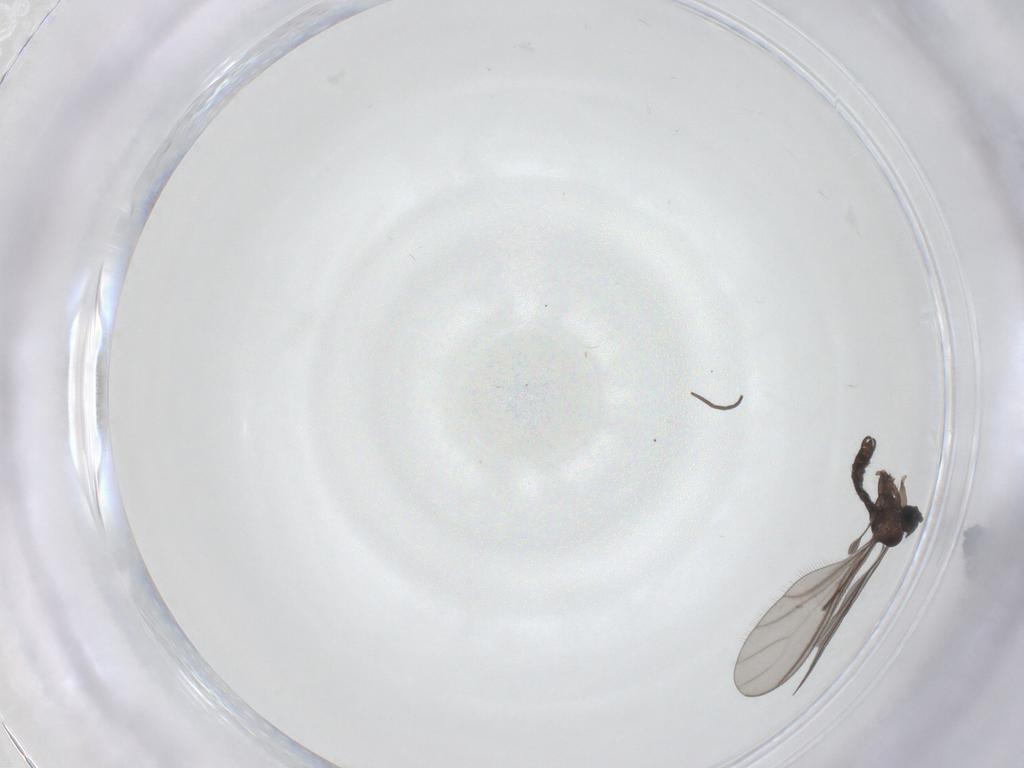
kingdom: Animalia
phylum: Arthropoda
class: Insecta
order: Diptera
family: Sciaridae
